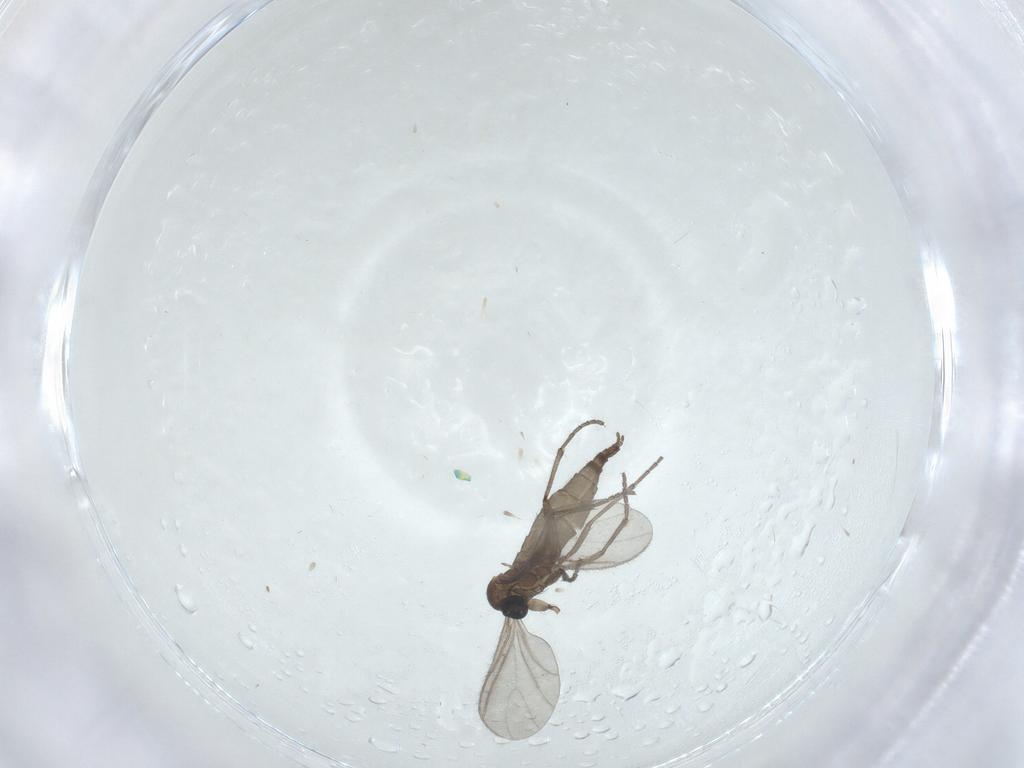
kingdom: Animalia
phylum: Arthropoda
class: Insecta
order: Diptera
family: Sciaridae
